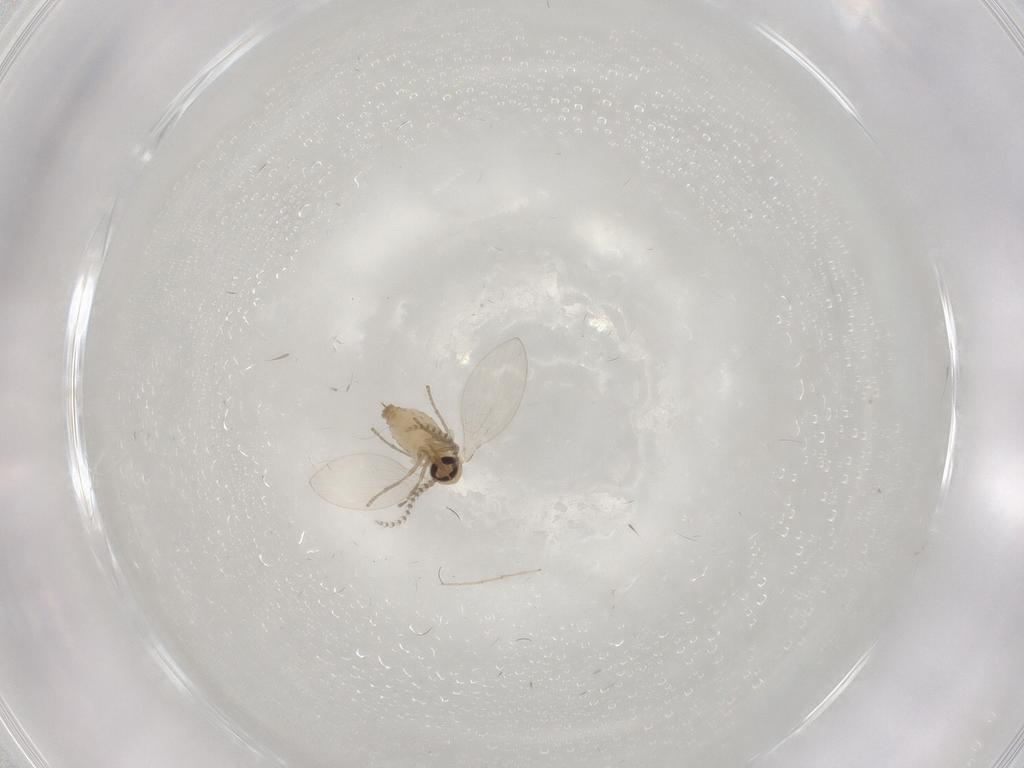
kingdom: Animalia
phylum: Arthropoda
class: Insecta
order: Diptera
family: Psychodidae
